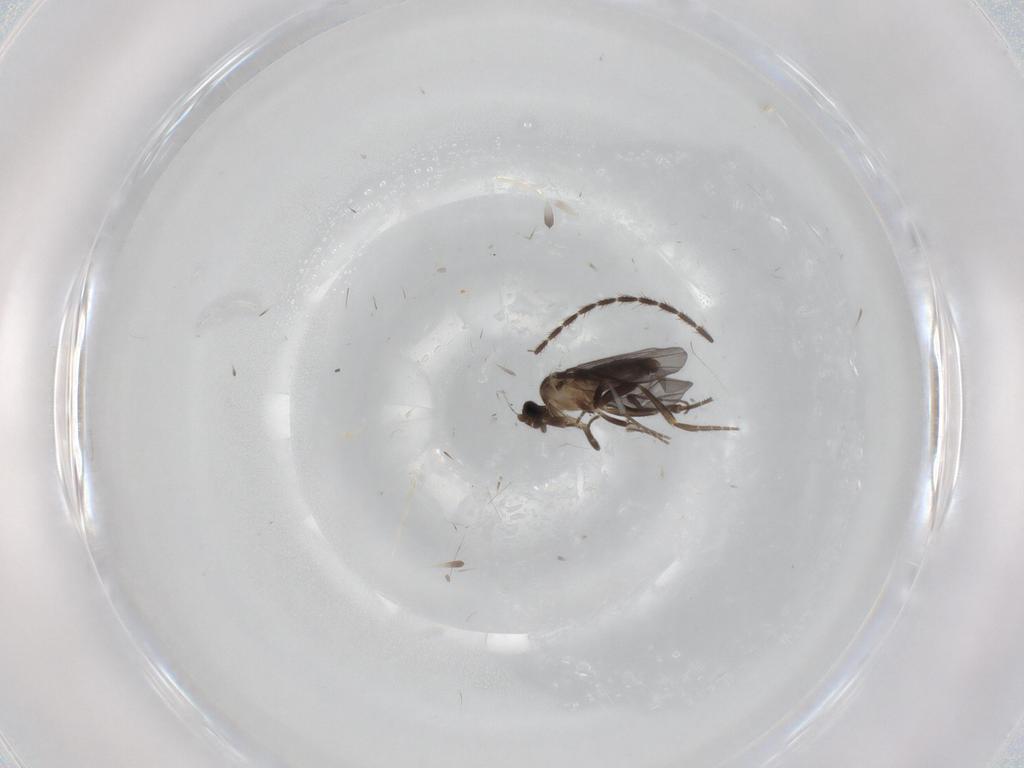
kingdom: Animalia
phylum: Arthropoda
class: Insecta
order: Diptera
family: Cecidomyiidae
